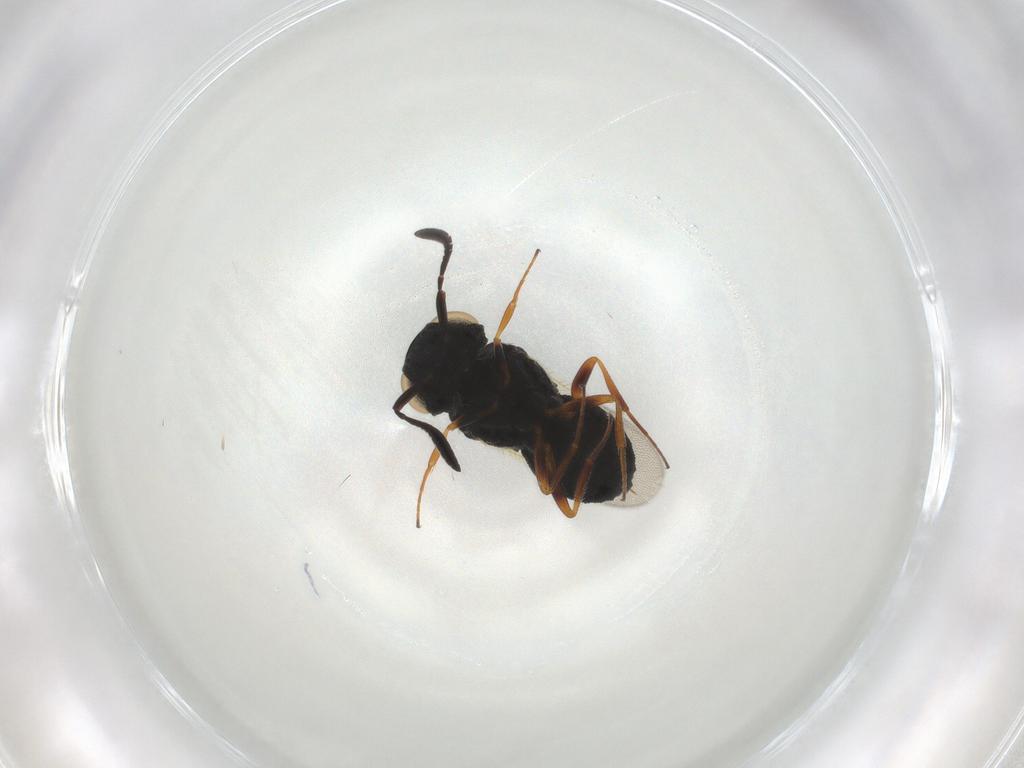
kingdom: Animalia
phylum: Arthropoda
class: Insecta
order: Hymenoptera
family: Scelionidae
